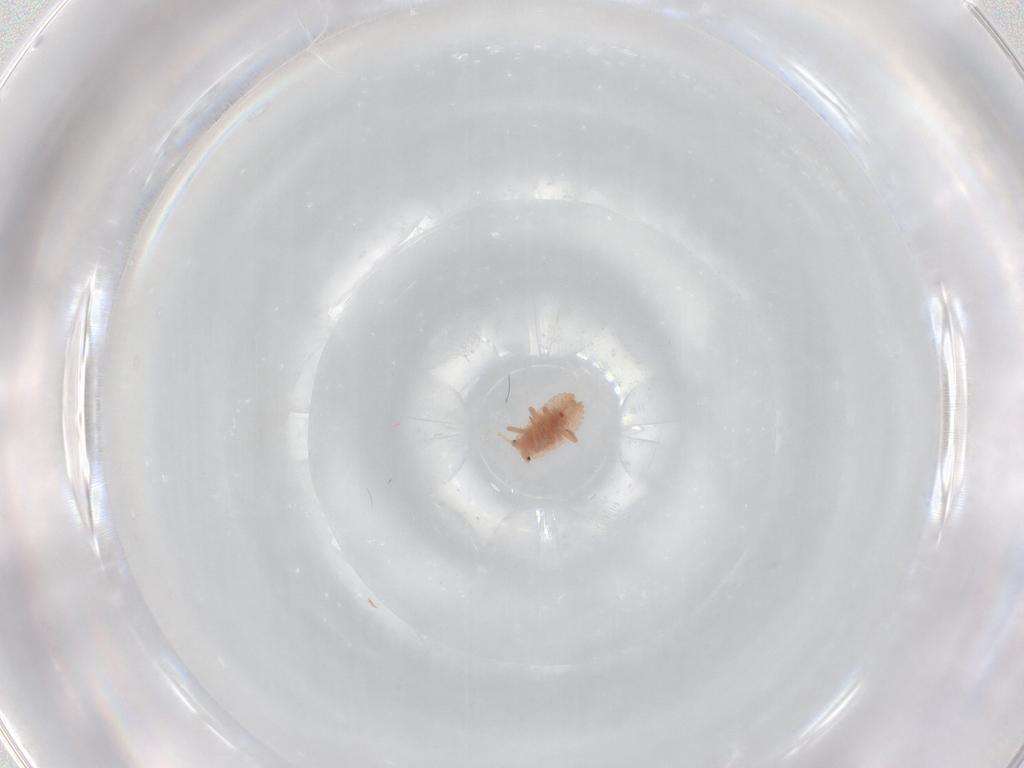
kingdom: Animalia
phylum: Arthropoda
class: Insecta
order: Hemiptera
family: Coccoidea_incertae_sedis
